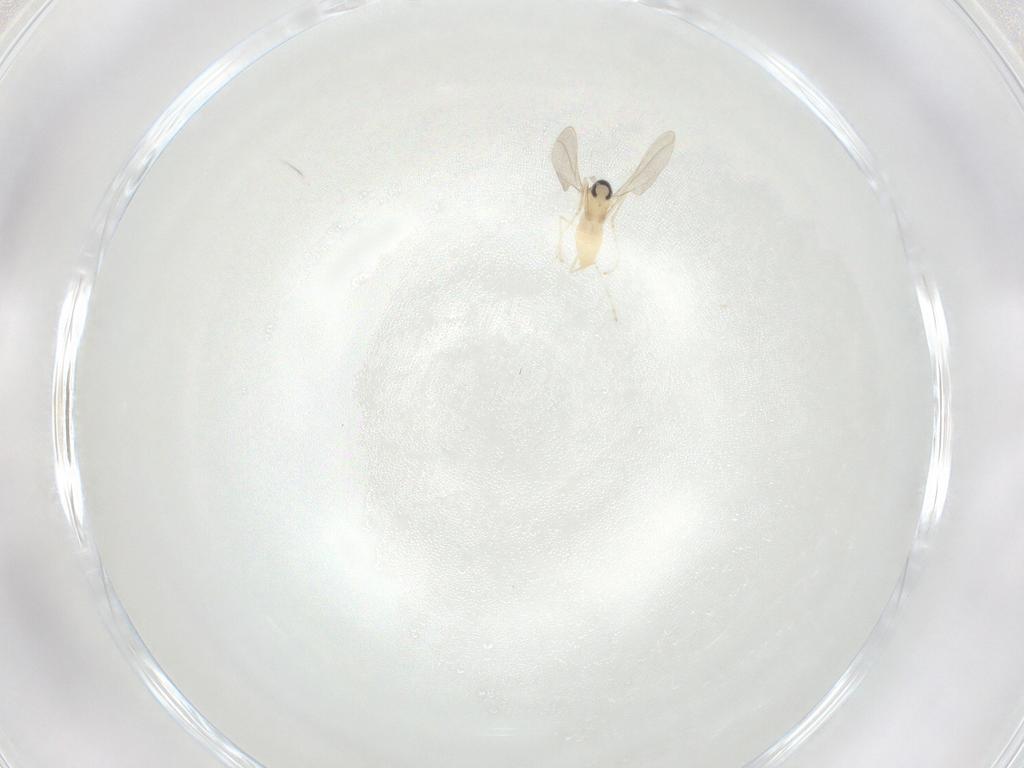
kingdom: Animalia
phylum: Arthropoda
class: Insecta
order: Diptera
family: Cecidomyiidae
